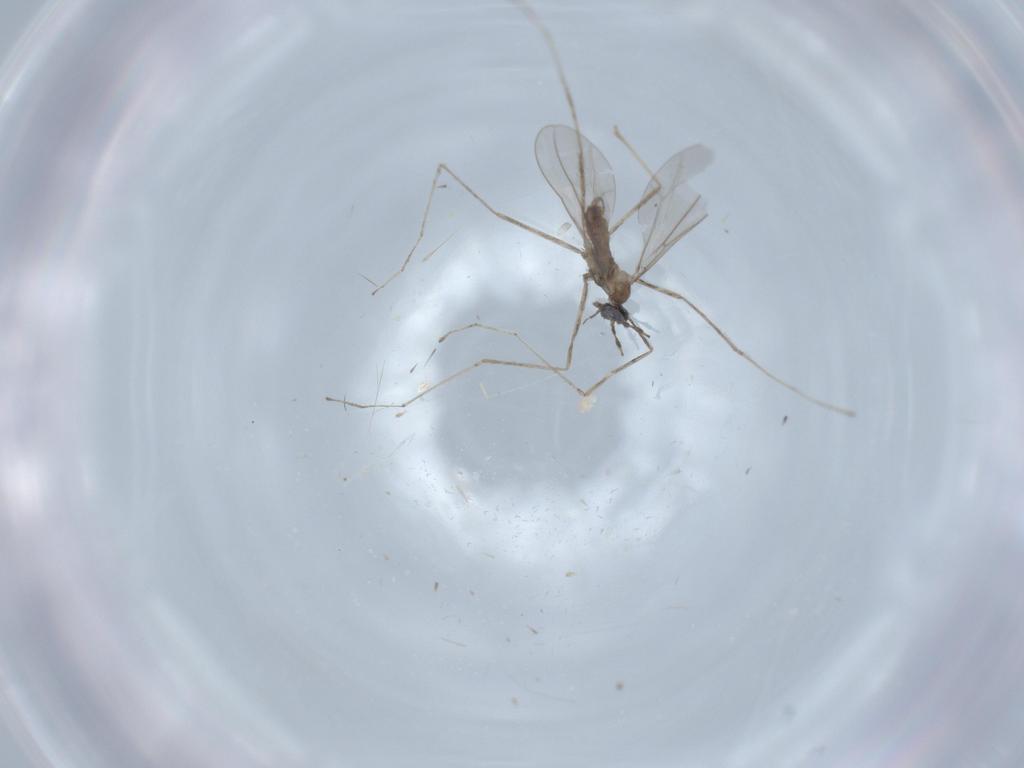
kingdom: Animalia
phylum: Arthropoda
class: Insecta
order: Diptera
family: Cecidomyiidae
